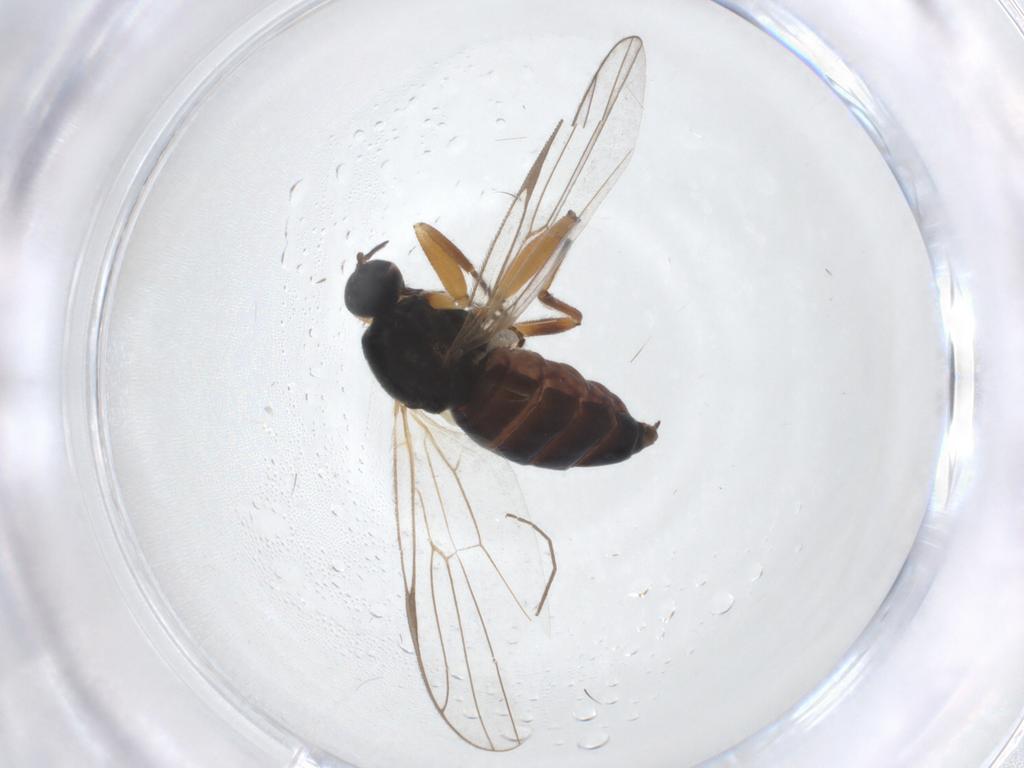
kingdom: Animalia
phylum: Arthropoda
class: Insecta
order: Diptera
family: Hybotidae
